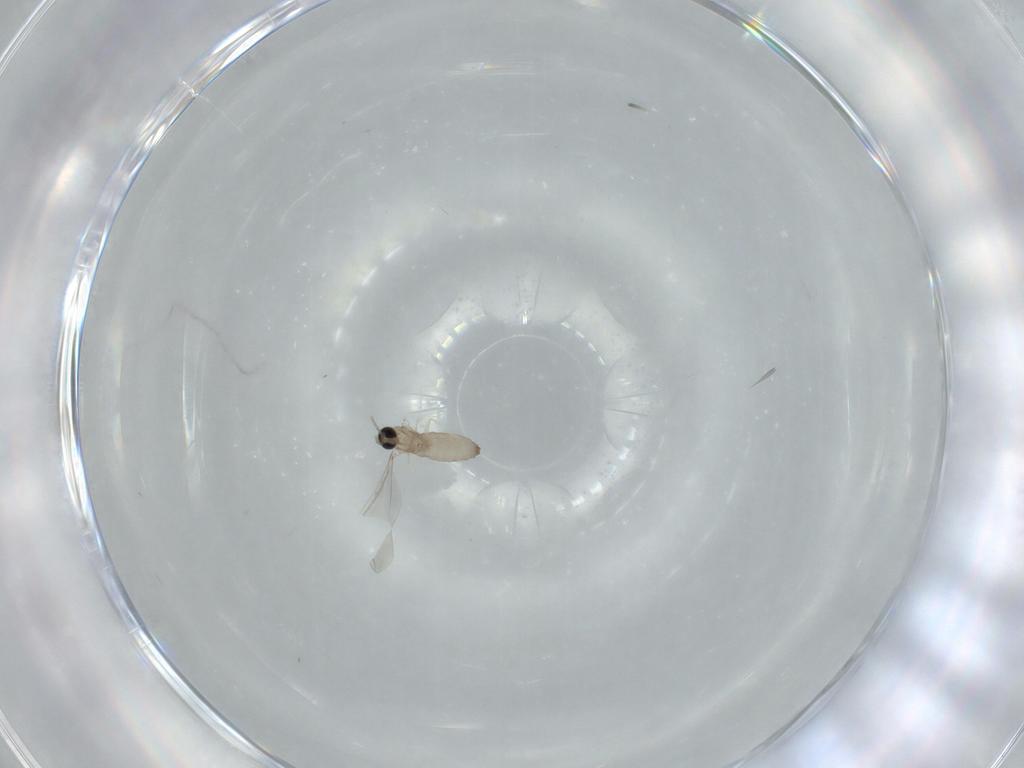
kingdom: Animalia
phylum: Arthropoda
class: Insecta
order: Diptera
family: Cecidomyiidae
